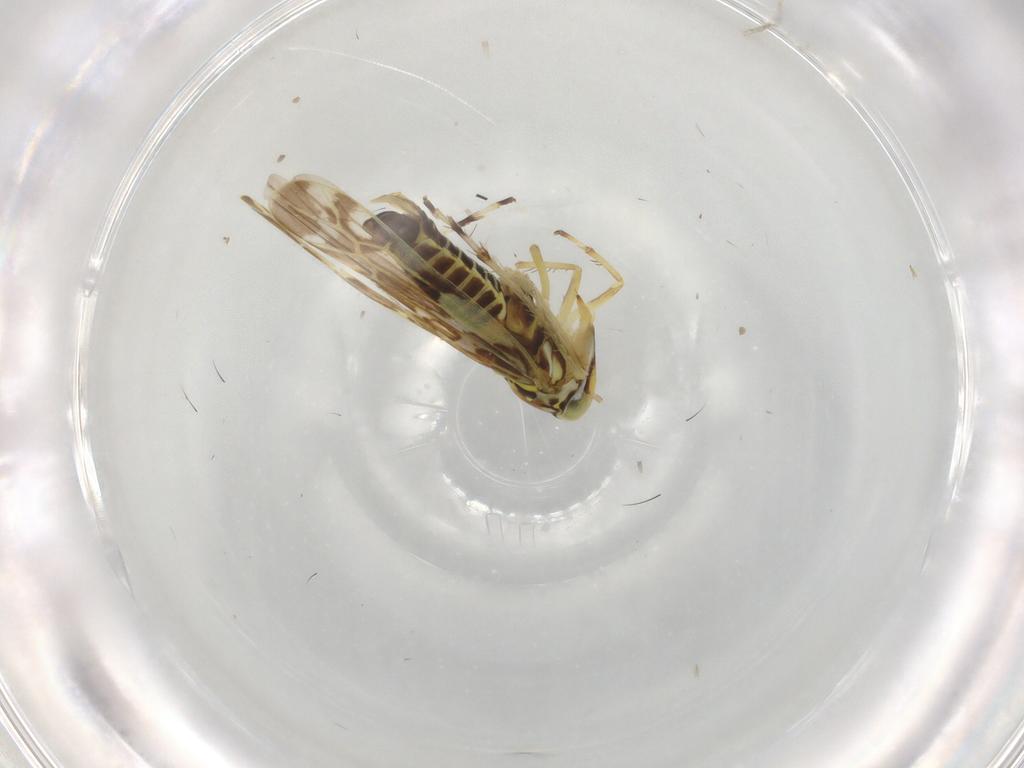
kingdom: Animalia
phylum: Arthropoda
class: Insecta
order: Hemiptera
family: Cicadellidae
